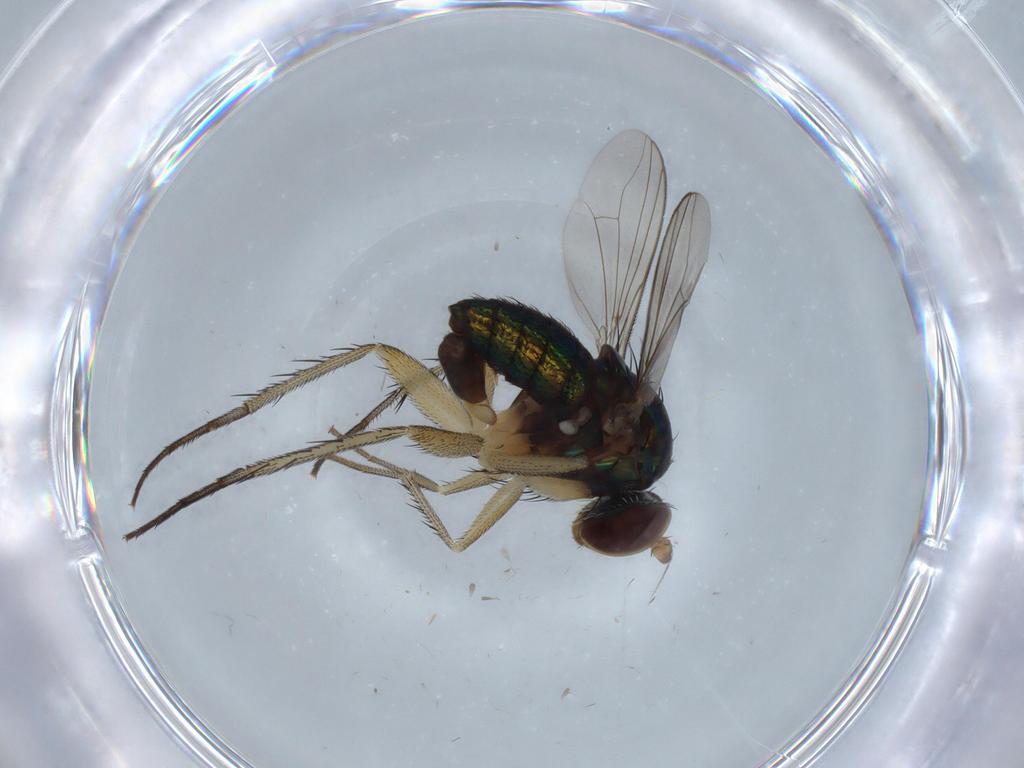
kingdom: Animalia
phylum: Arthropoda
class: Insecta
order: Diptera
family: Dolichopodidae
